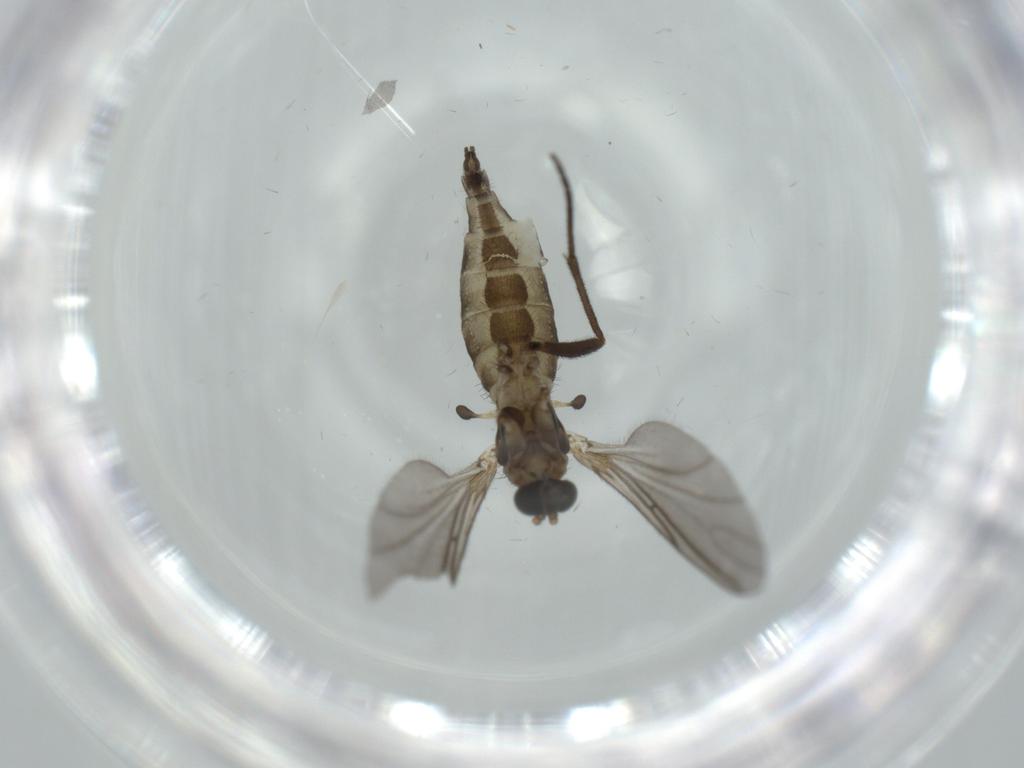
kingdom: Animalia
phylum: Arthropoda
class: Insecta
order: Diptera
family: Sciaridae
